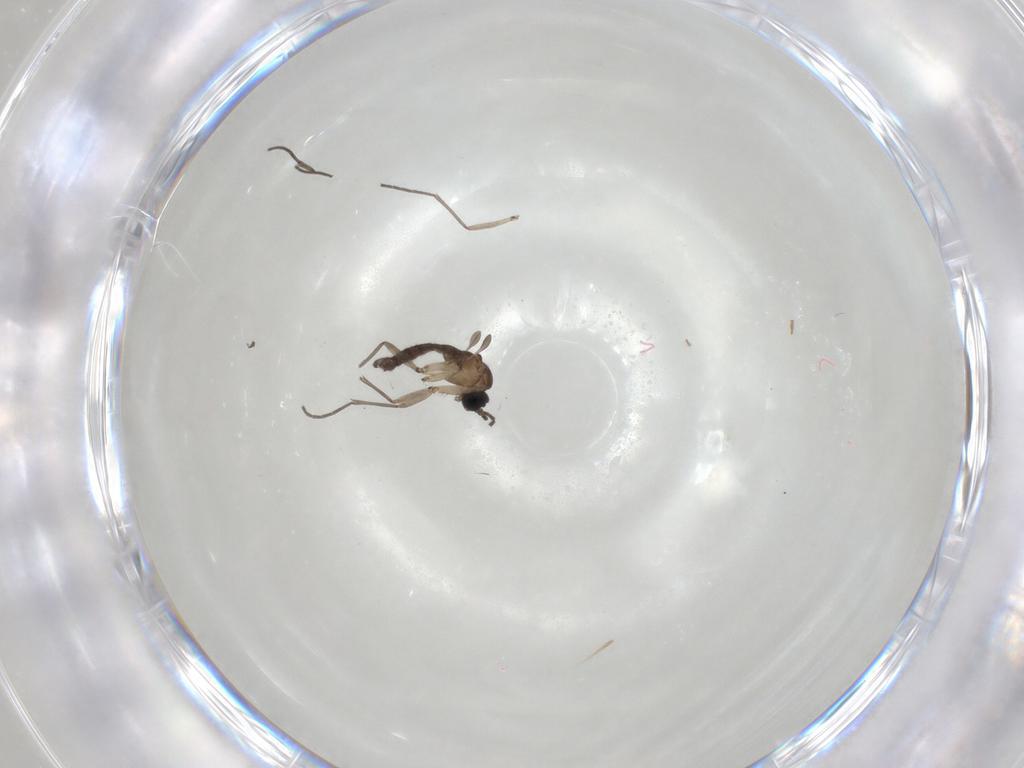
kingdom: Animalia
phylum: Arthropoda
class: Insecta
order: Diptera
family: Sciaridae
